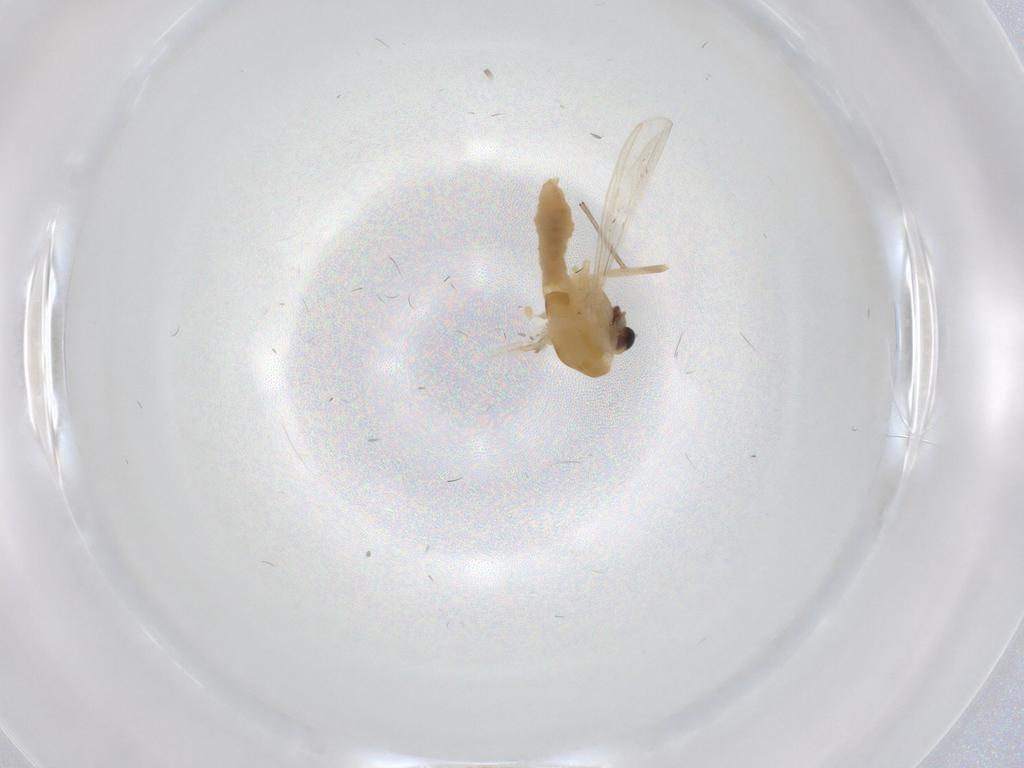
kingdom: Animalia
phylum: Arthropoda
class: Insecta
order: Diptera
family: Chironomidae
